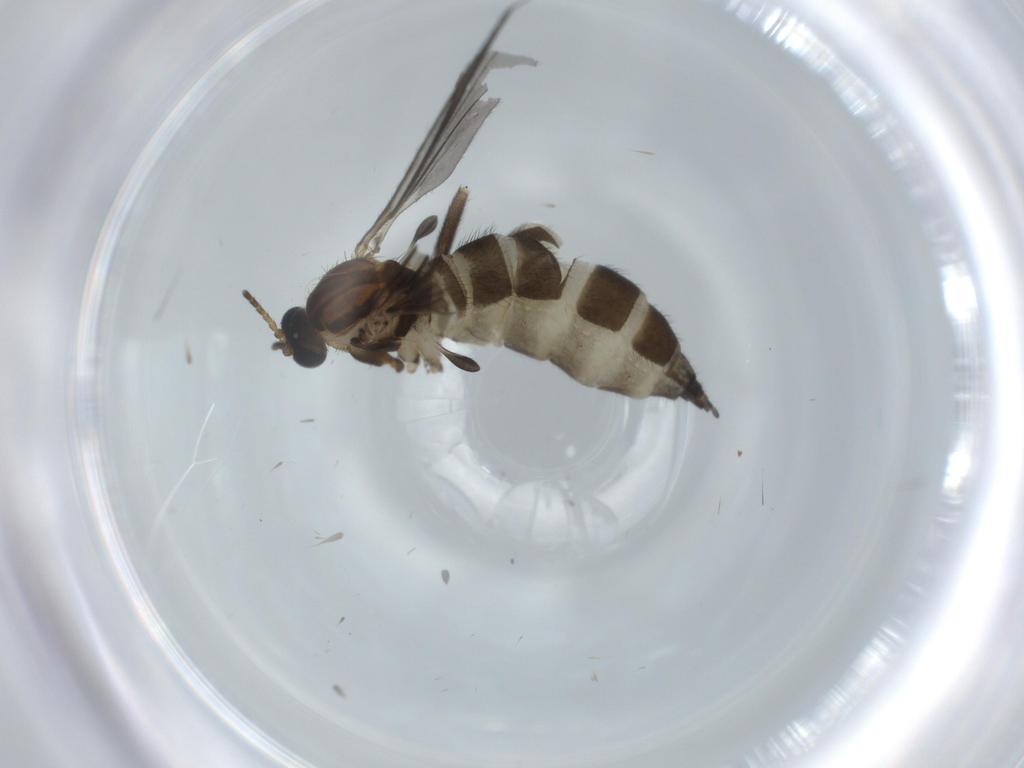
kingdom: Animalia
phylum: Arthropoda
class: Insecta
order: Diptera
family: Sciaridae
